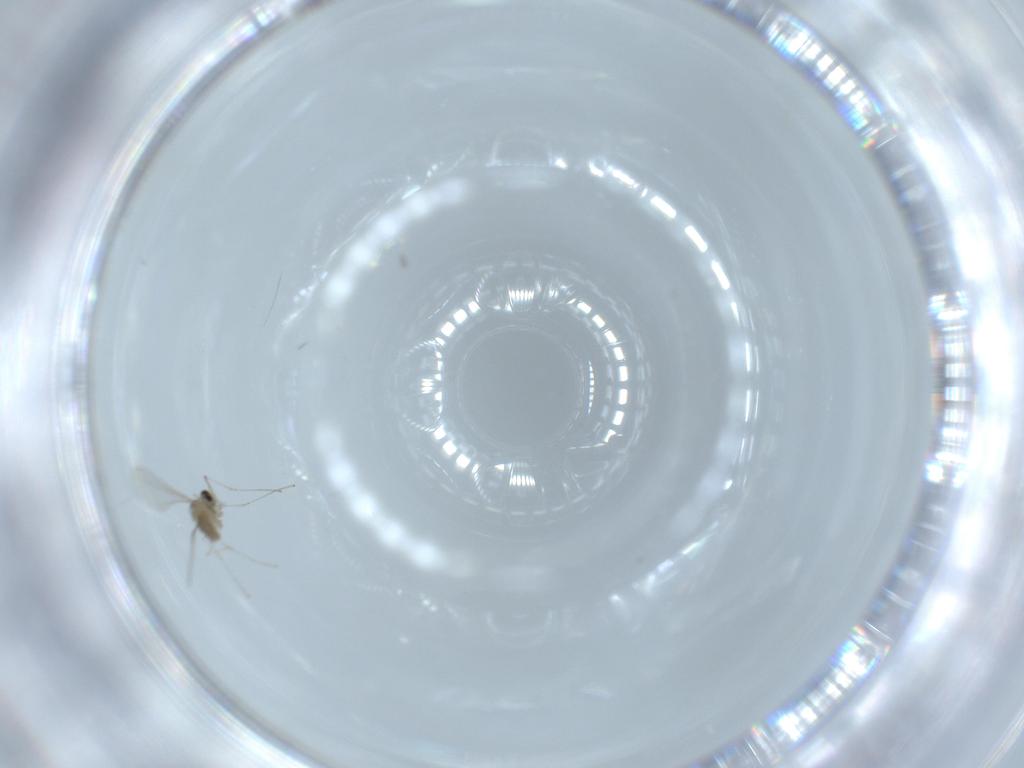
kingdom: Animalia
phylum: Arthropoda
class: Insecta
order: Diptera
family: Cecidomyiidae
